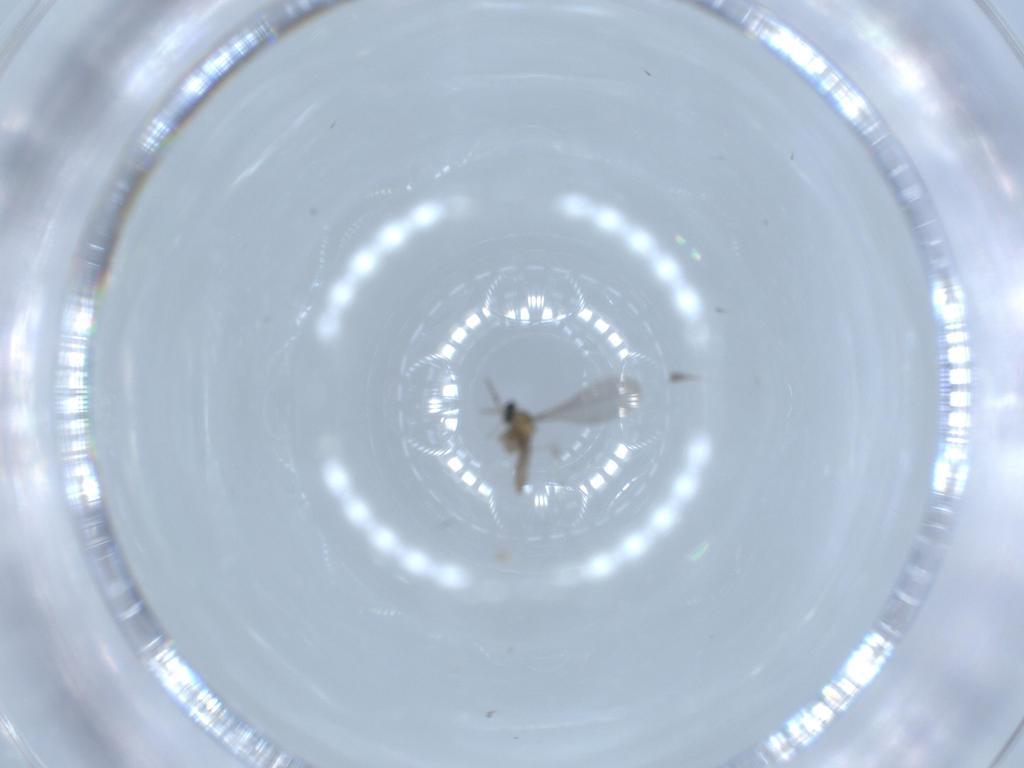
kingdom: Animalia
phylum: Arthropoda
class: Insecta
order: Diptera
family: Cecidomyiidae
